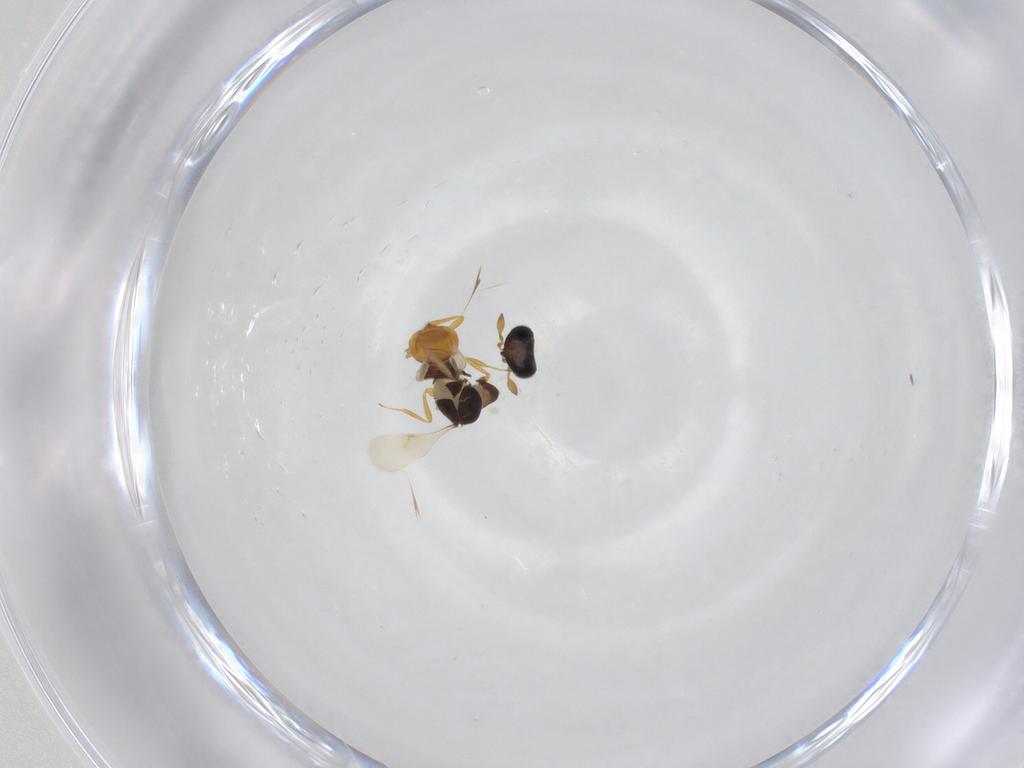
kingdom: Animalia
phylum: Arthropoda
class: Insecta
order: Hymenoptera
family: Scelionidae
